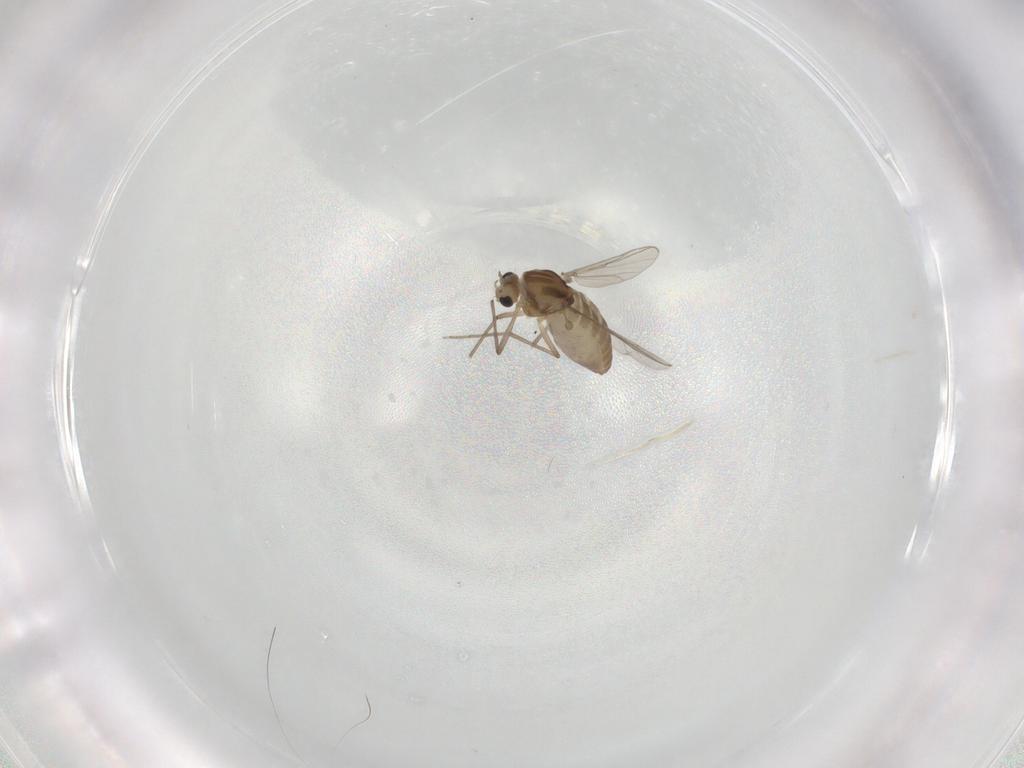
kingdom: Animalia
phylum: Arthropoda
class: Insecta
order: Diptera
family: Chironomidae
